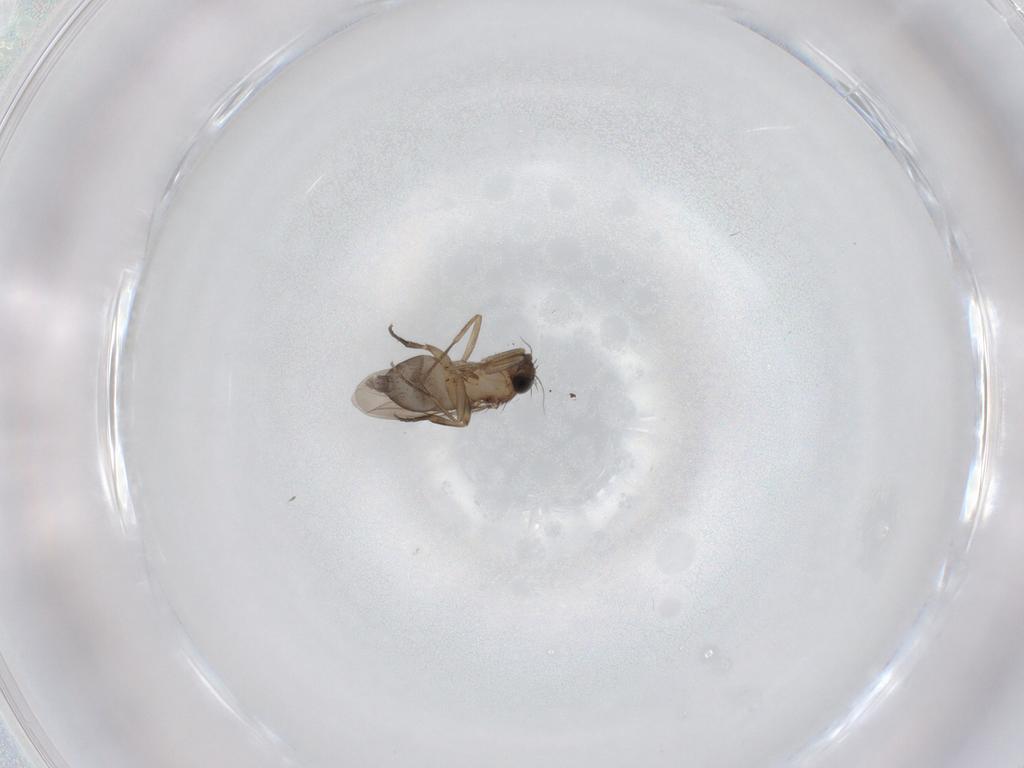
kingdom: Animalia
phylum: Arthropoda
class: Insecta
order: Diptera
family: Phoridae
